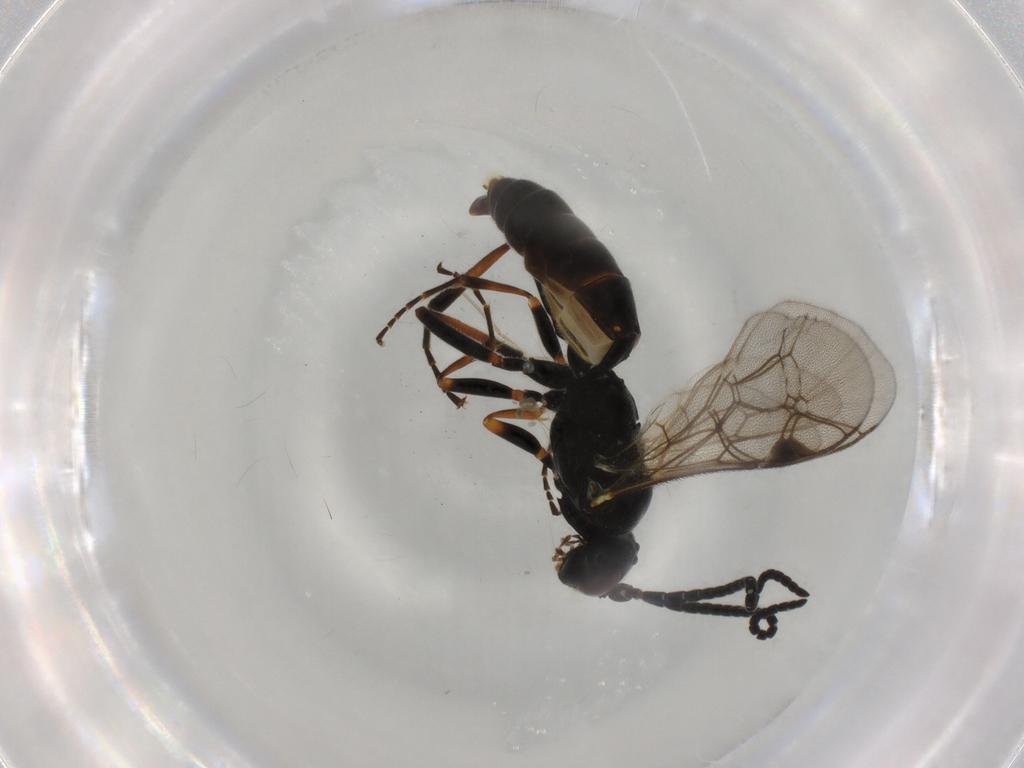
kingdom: Animalia
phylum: Arthropoda
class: Insecta
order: Hymenoptera
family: Ichneumonidae
